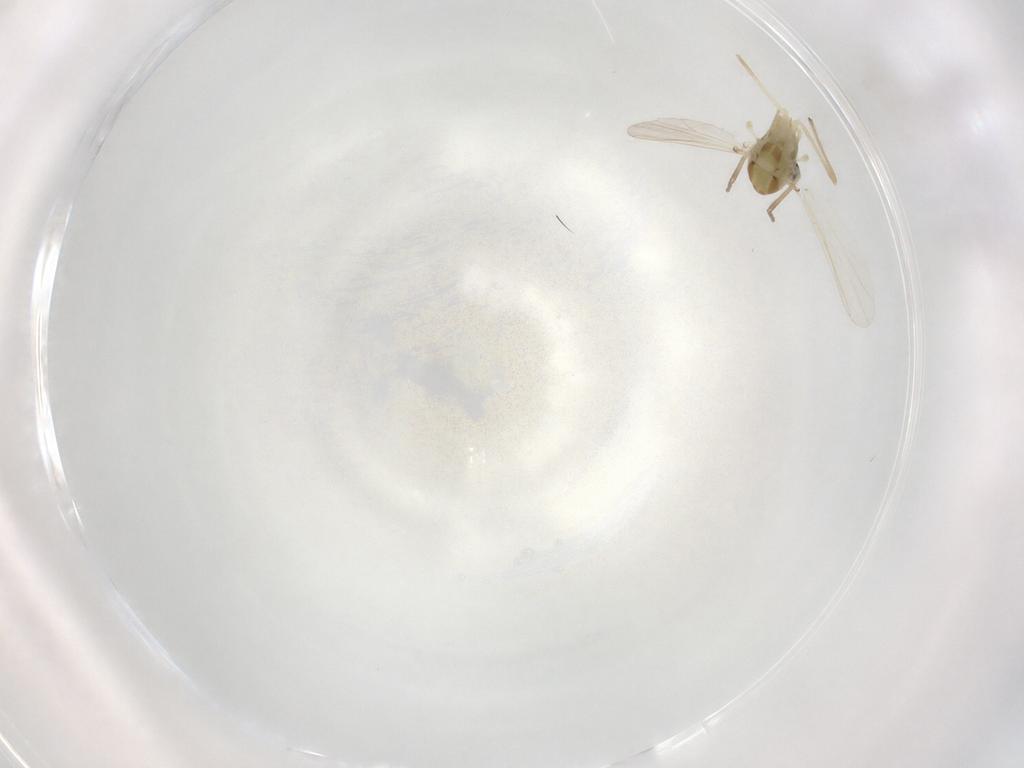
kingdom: Animalia
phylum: Arthropoda
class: Insecta
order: Diptera
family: Chironomidae
